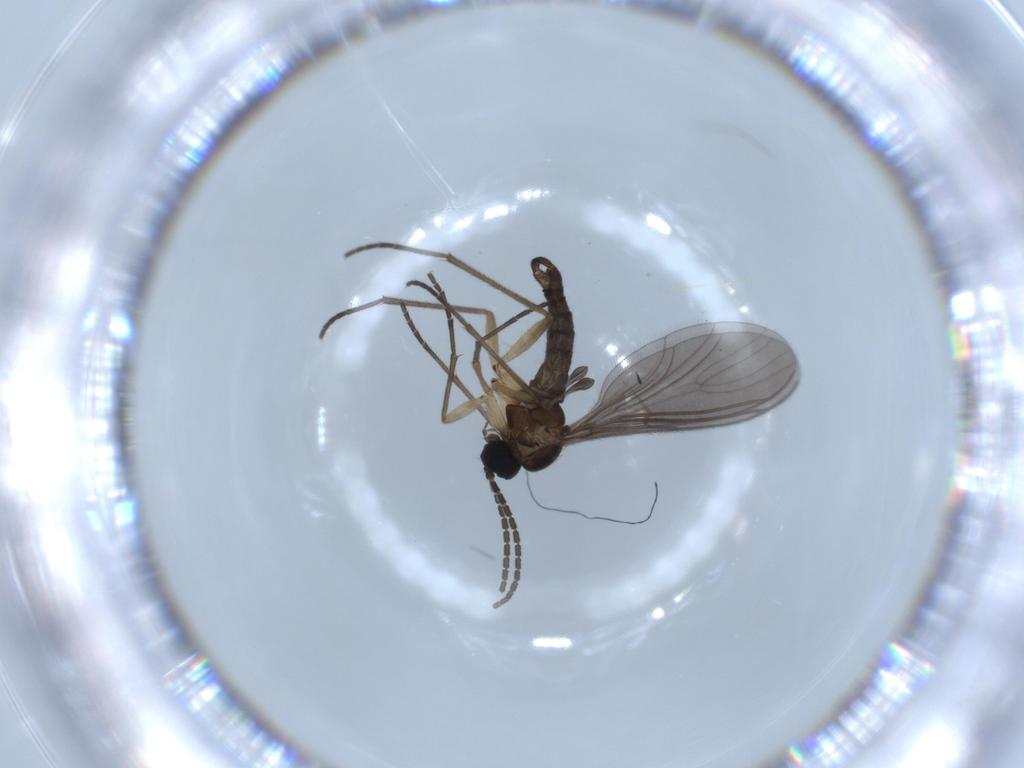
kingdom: Animalia
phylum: Arthropoda
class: Insecta
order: Diptera
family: Sciaridae
